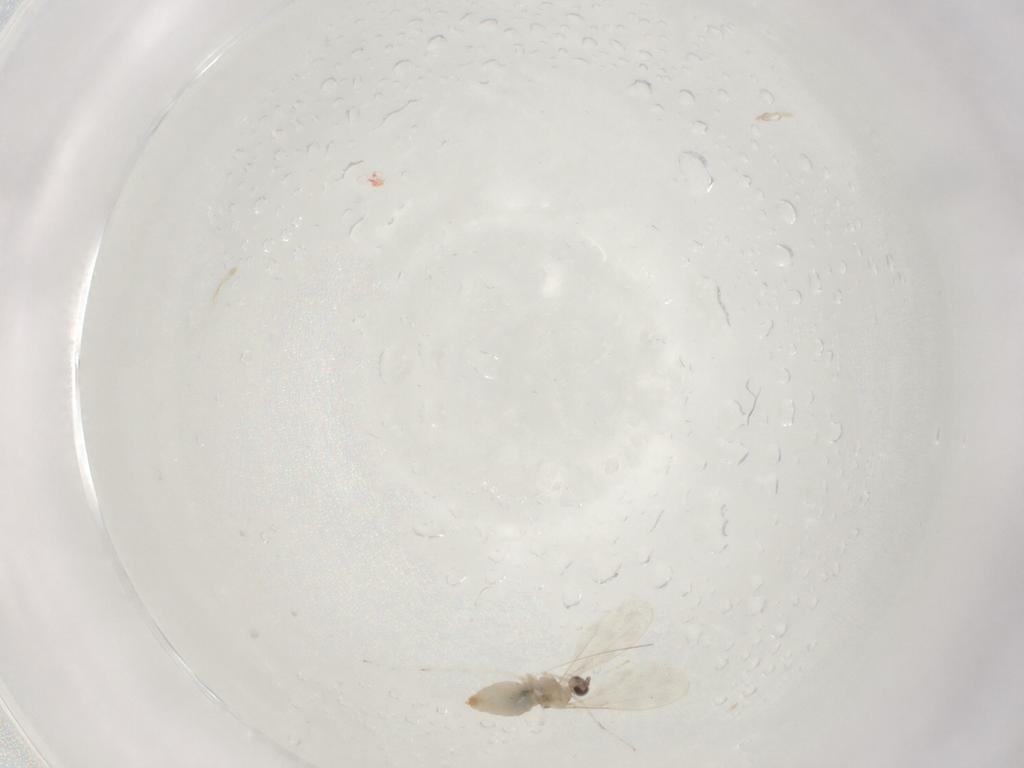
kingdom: Animalia
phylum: Arthropoda
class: Insecta
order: Diptera
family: Cecidomyiidae
